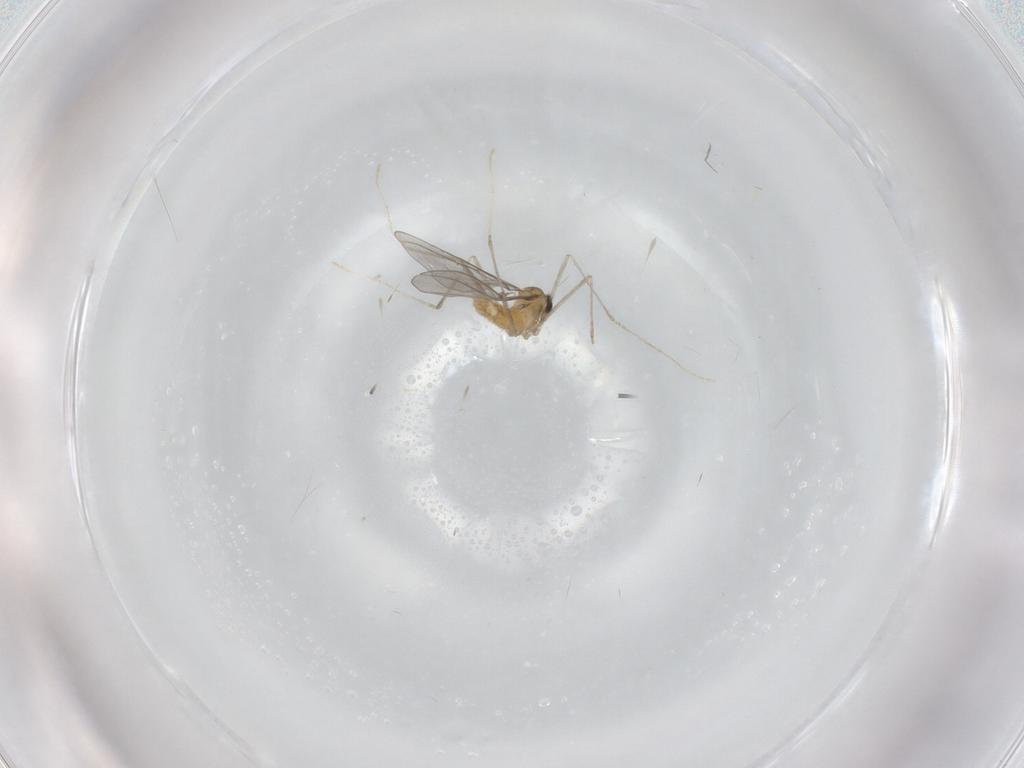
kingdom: Animalia
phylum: Arthropoda
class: Insecta
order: Diptera
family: Cecidomyiidae
